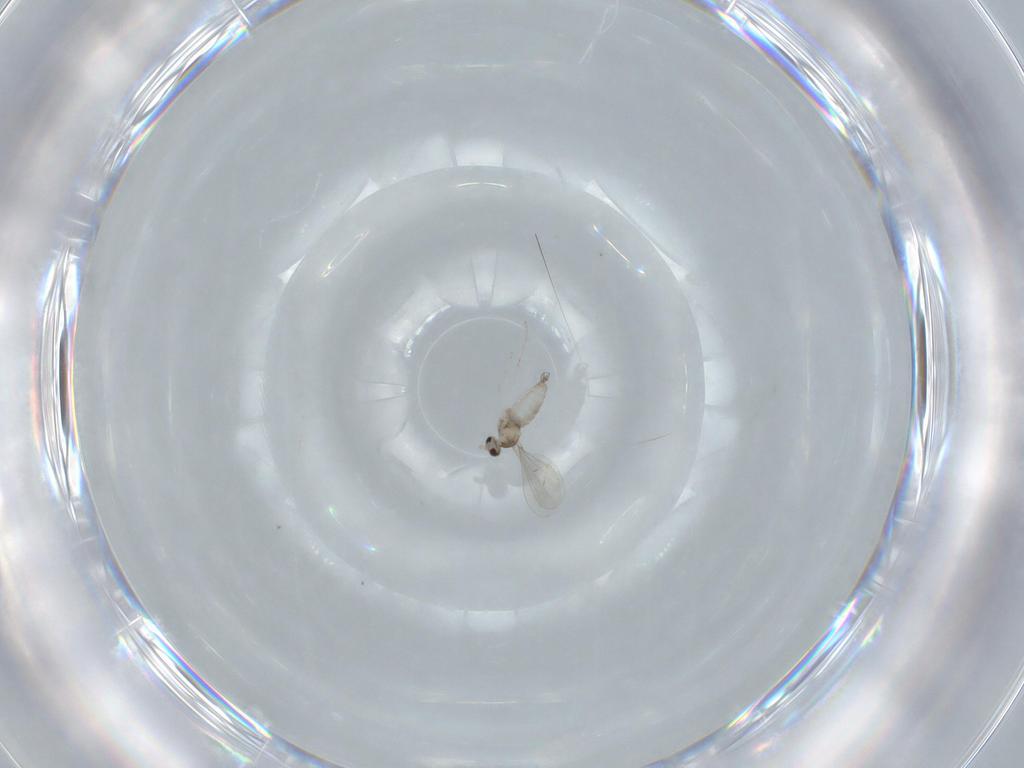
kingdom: Animalia
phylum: Arthropoda
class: Insecta
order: Diptera
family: Cecidomyiidae
